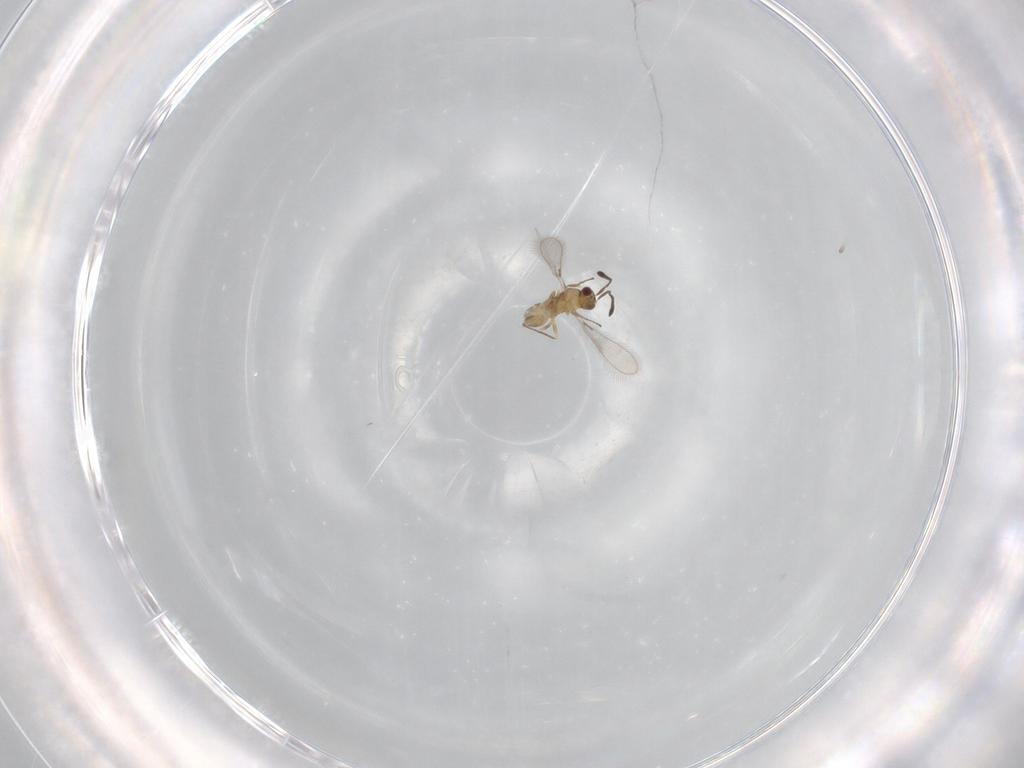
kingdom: Animalia
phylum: Arthropoda
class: Insecta
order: Hymenoptera
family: Mymaridae
